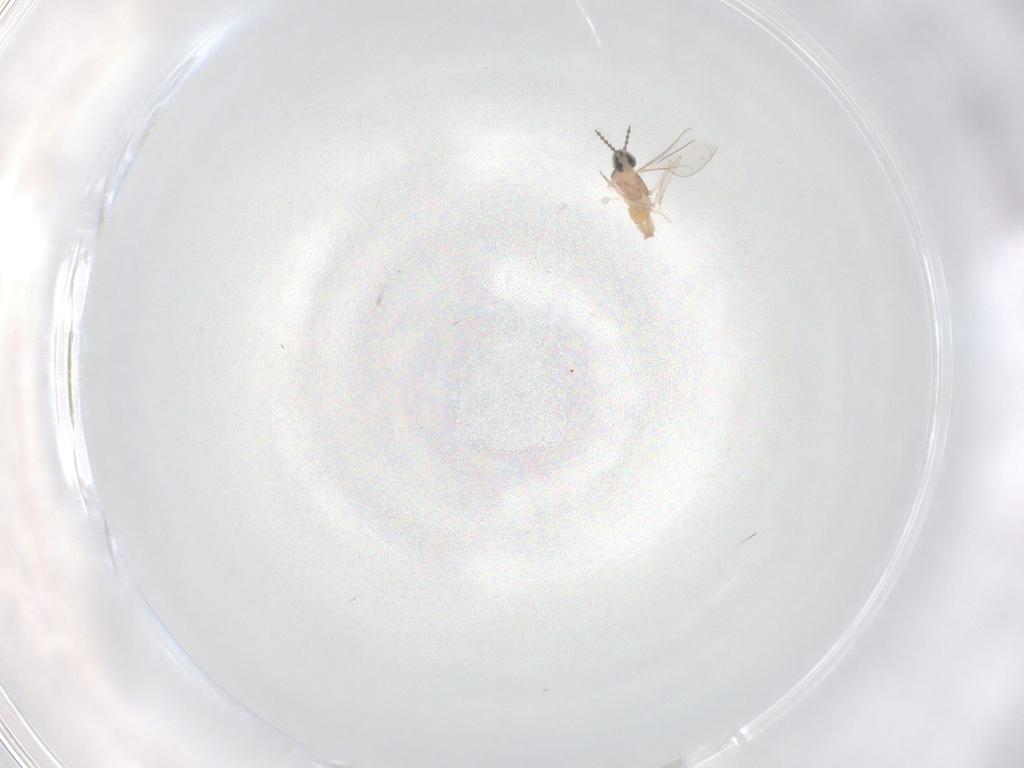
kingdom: Animalia
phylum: Arthropoda
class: Insecta
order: Diptera
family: Cecidomyiidae
